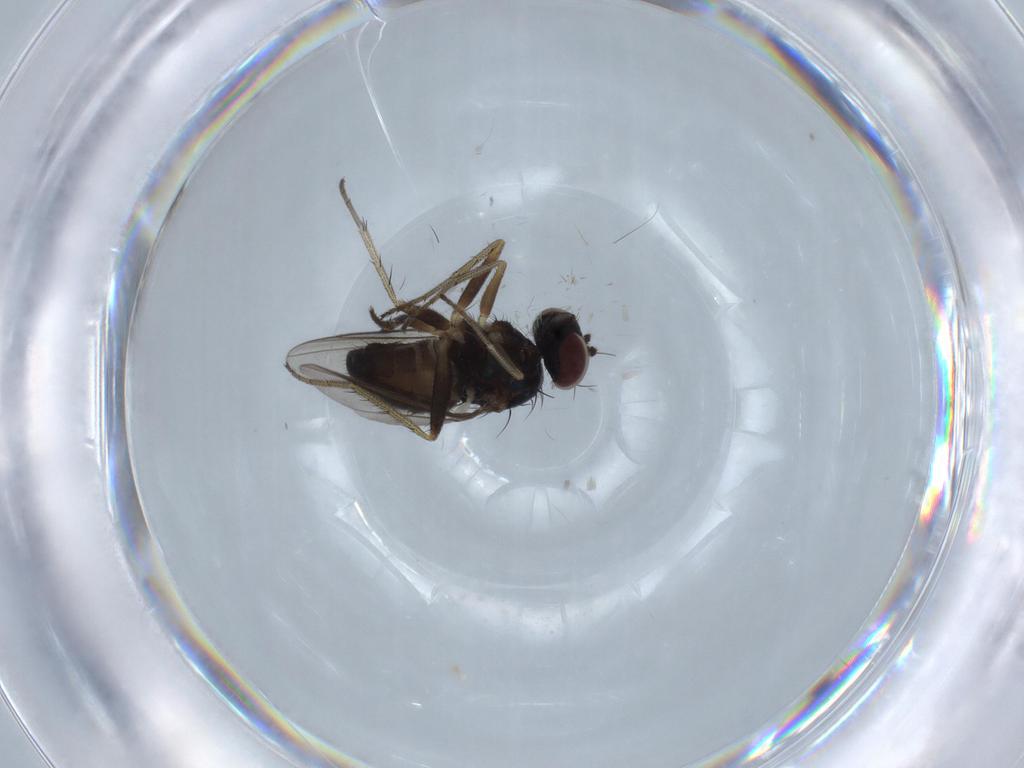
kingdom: Animalia
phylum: Arthropoda
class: Insecta
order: Diptera
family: Dolichopodidae
